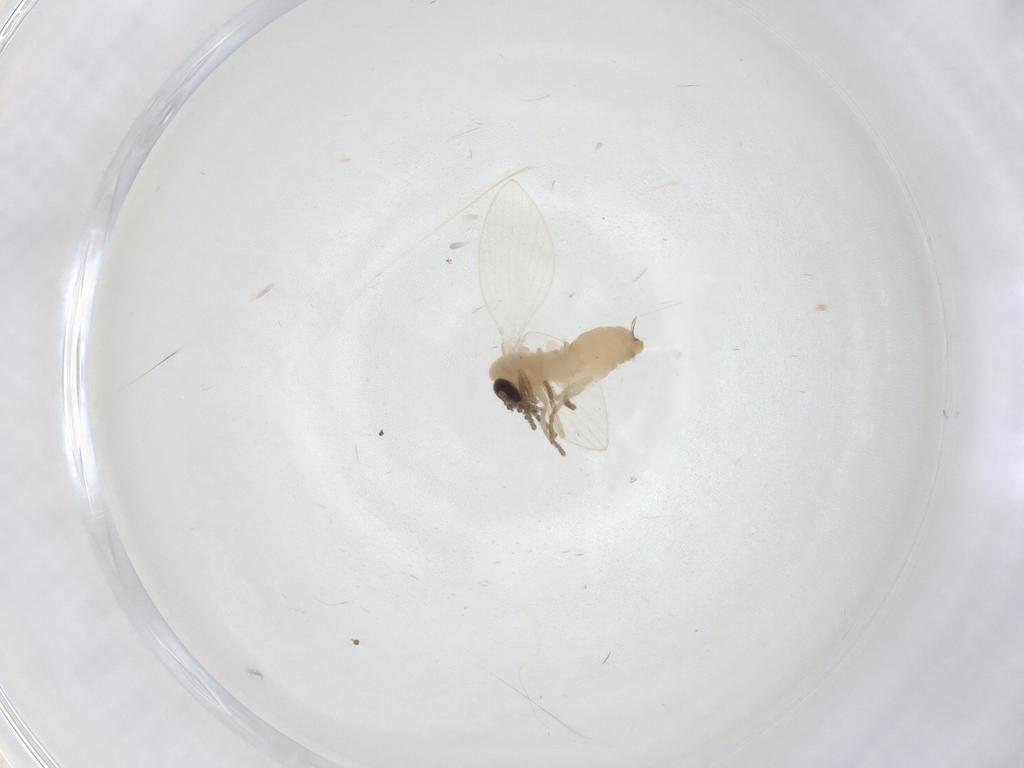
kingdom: Animalia
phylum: Arthropoda
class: Insecta
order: Diptera
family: Psychodidae
